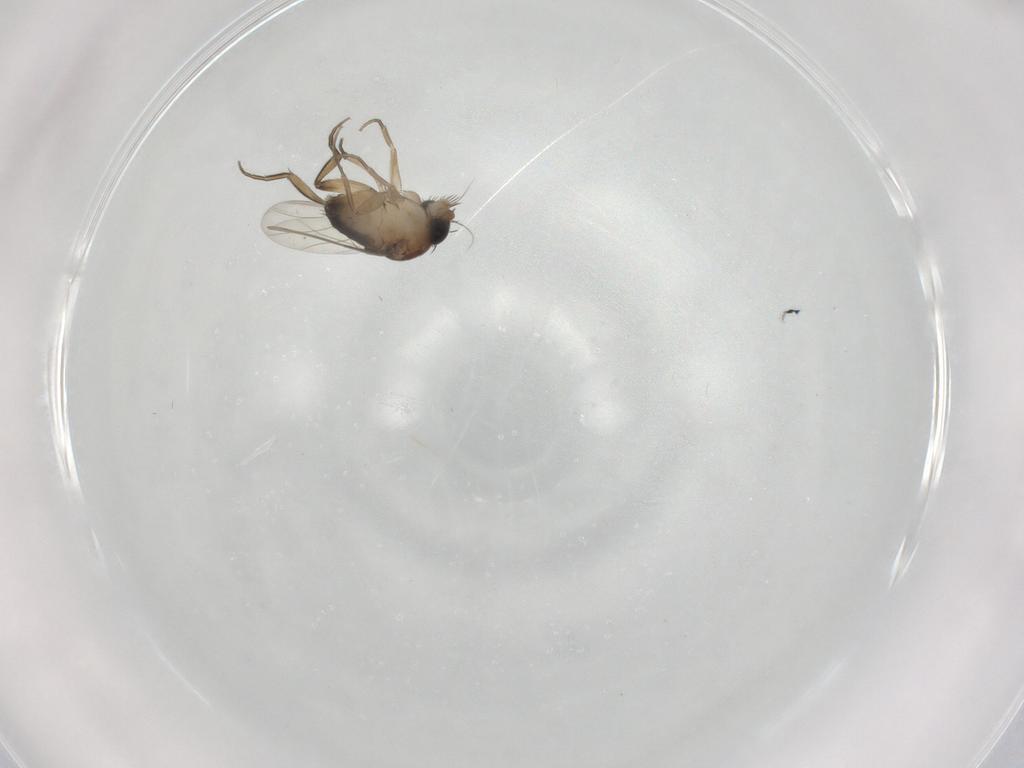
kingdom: Animalia
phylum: Arthropoda
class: Insecta
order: Diptera
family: Phoridae
